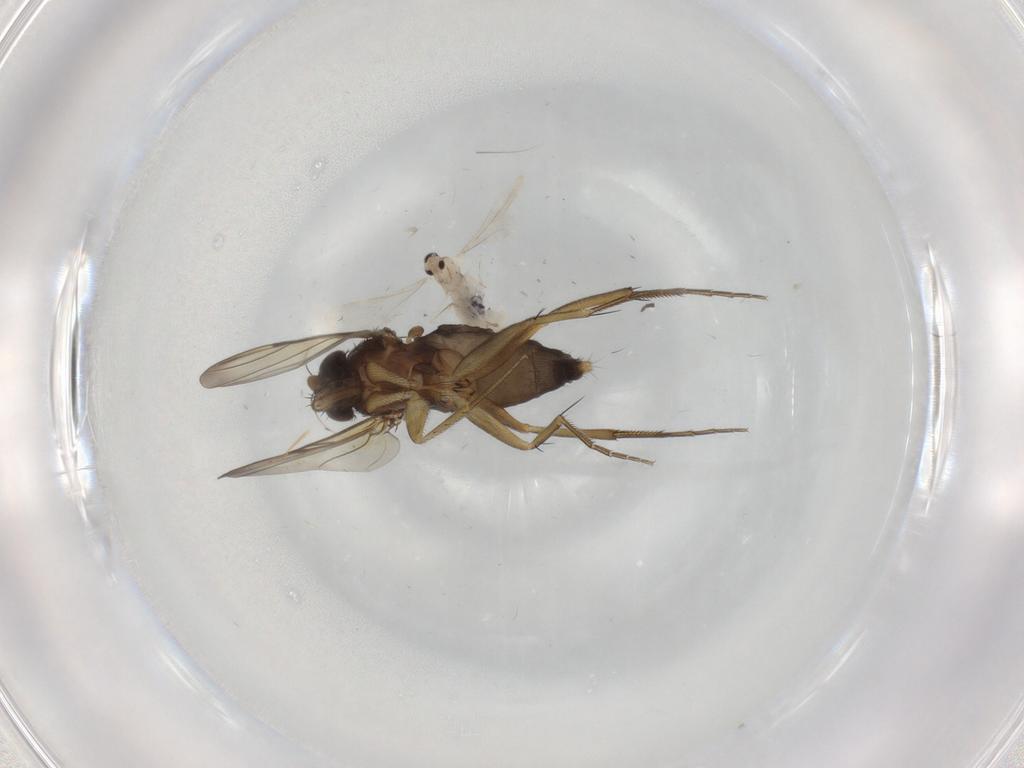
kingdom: Animalia
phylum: Arthropoda
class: Insecta
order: Diptera
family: Phoridae
